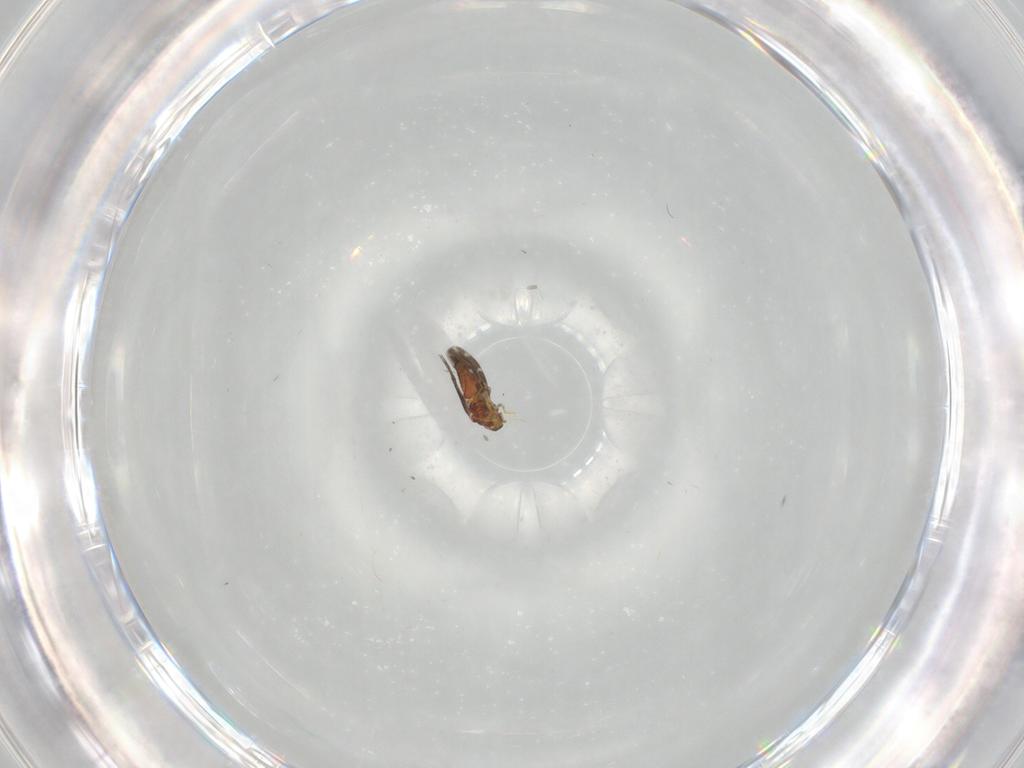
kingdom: Animalia
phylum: Arthropoda
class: Insecta
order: Hemiptera
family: Aleyrodidae
